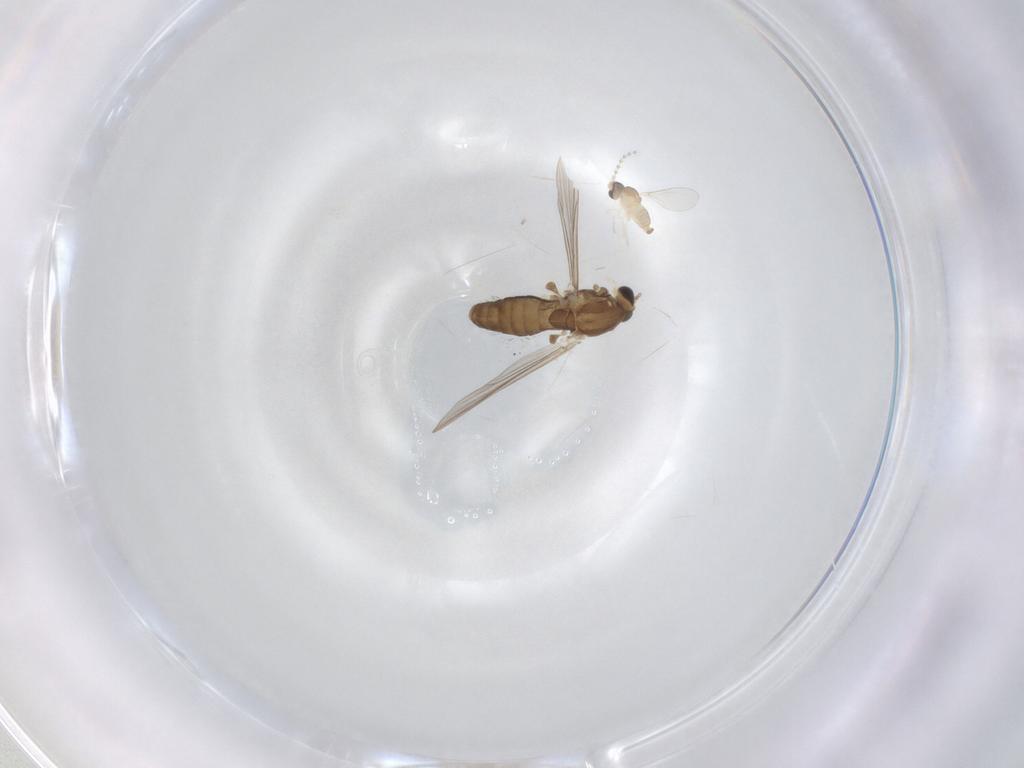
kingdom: Animalia
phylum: Arthropoda
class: Insecta
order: Diptera
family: Chironomidae
